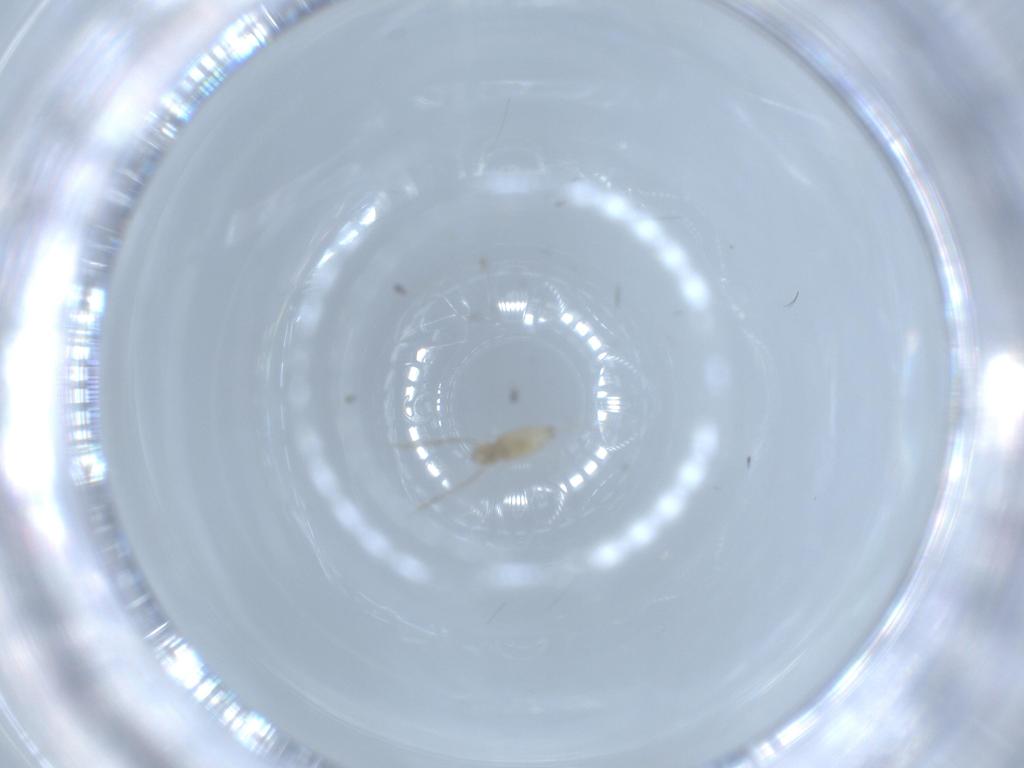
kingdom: Animalia
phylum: Arthropoda
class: Insecta
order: Diptera
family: Cecidomyiidae
